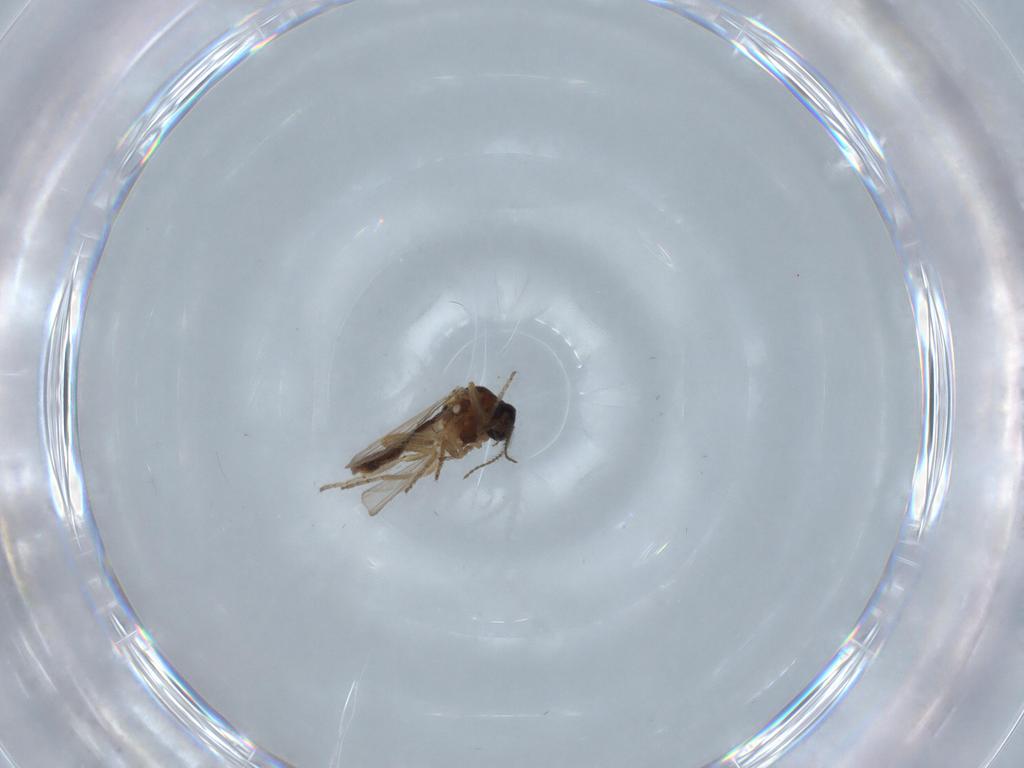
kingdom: Animalia
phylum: Arthropoda
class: Insecta
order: Diptera
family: Ceratopogonidae
